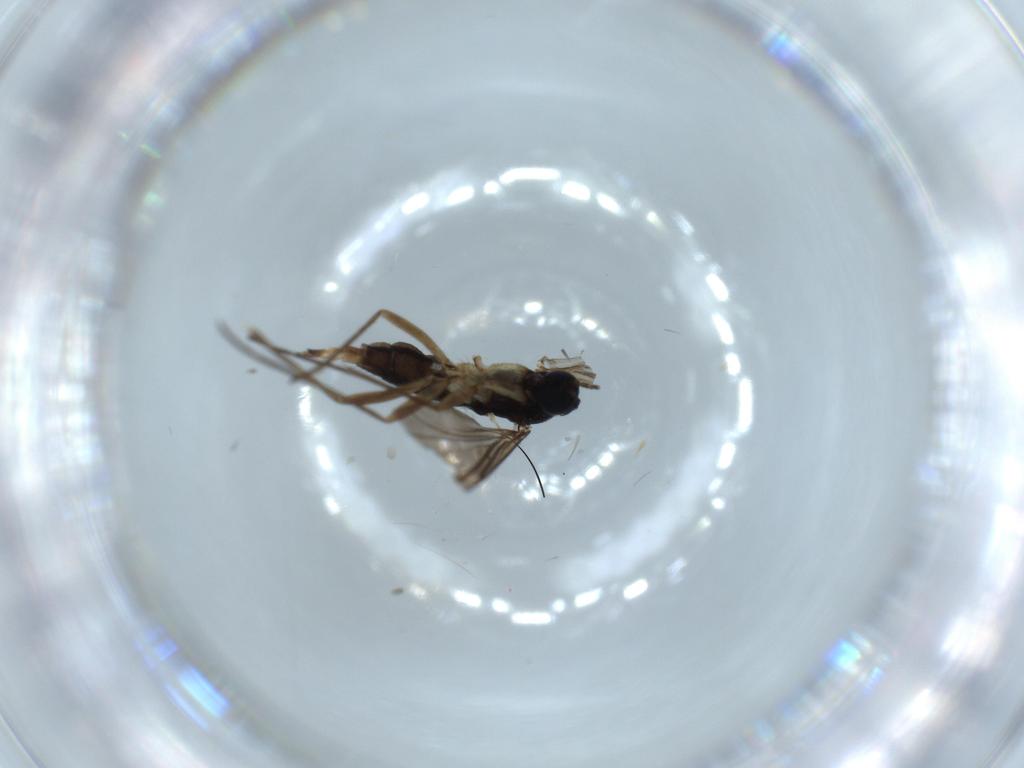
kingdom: Animalia
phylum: Arthropoda
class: Insecta
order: Diptera
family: Sciaridae
